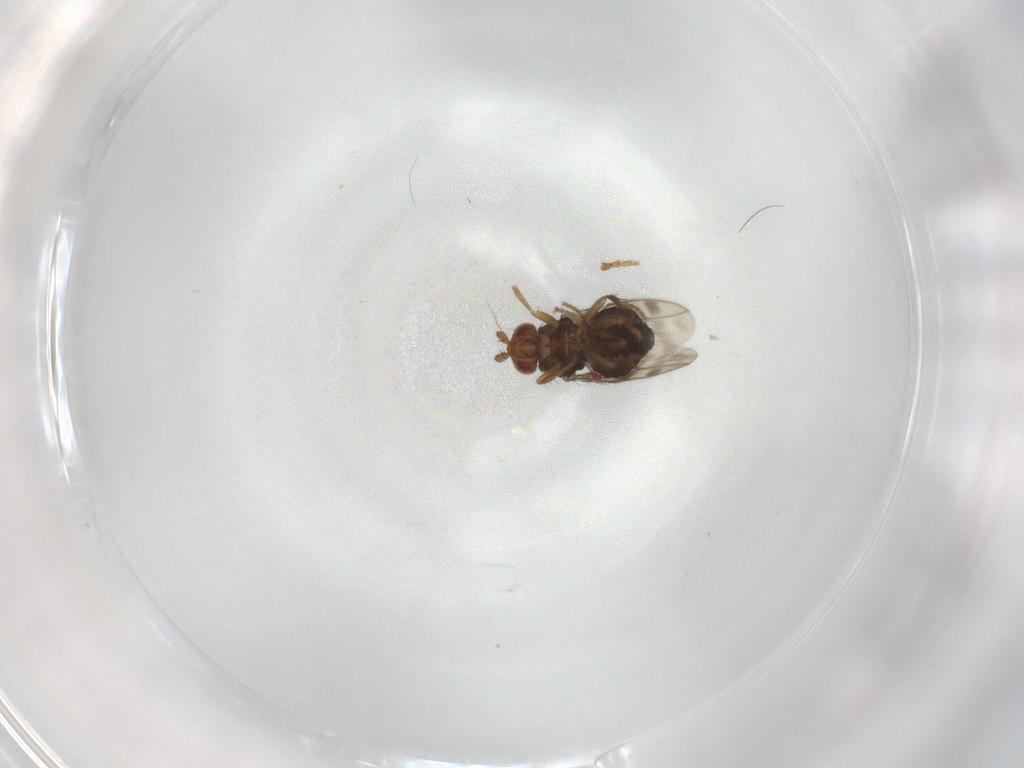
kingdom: Animalia
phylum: Arthropoda
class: Insecta
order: Diptera
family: Sphaeroceridae
